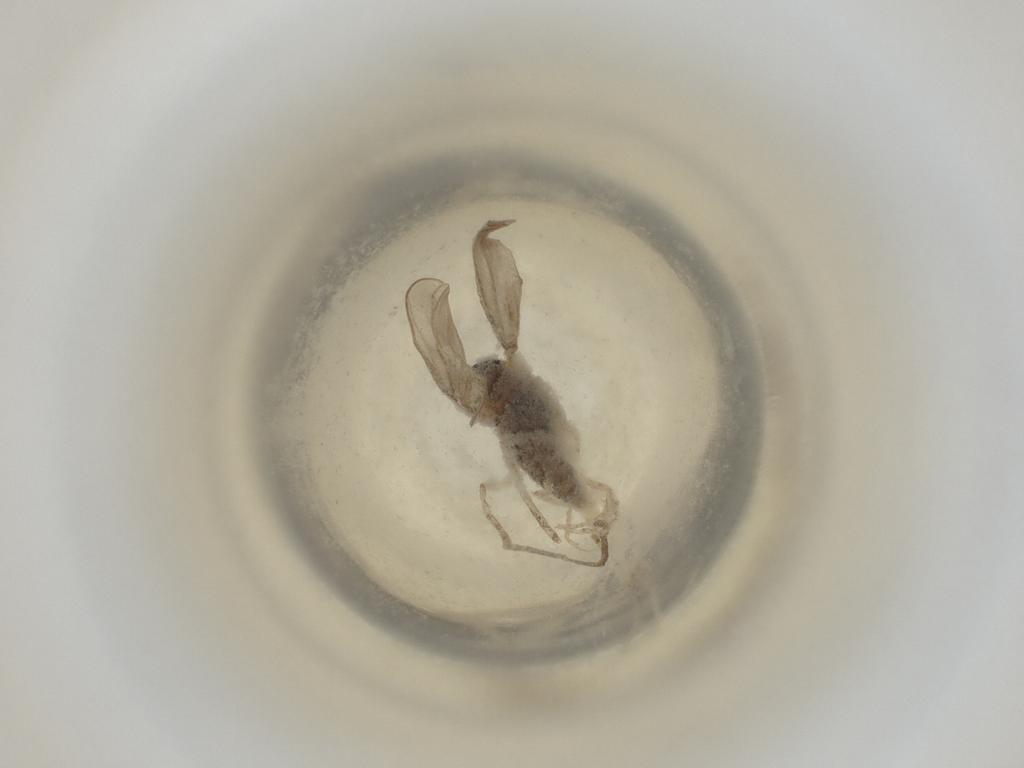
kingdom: Animalia
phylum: Arthropoda
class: Insecta
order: Diptera
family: Cecidomyiidae
